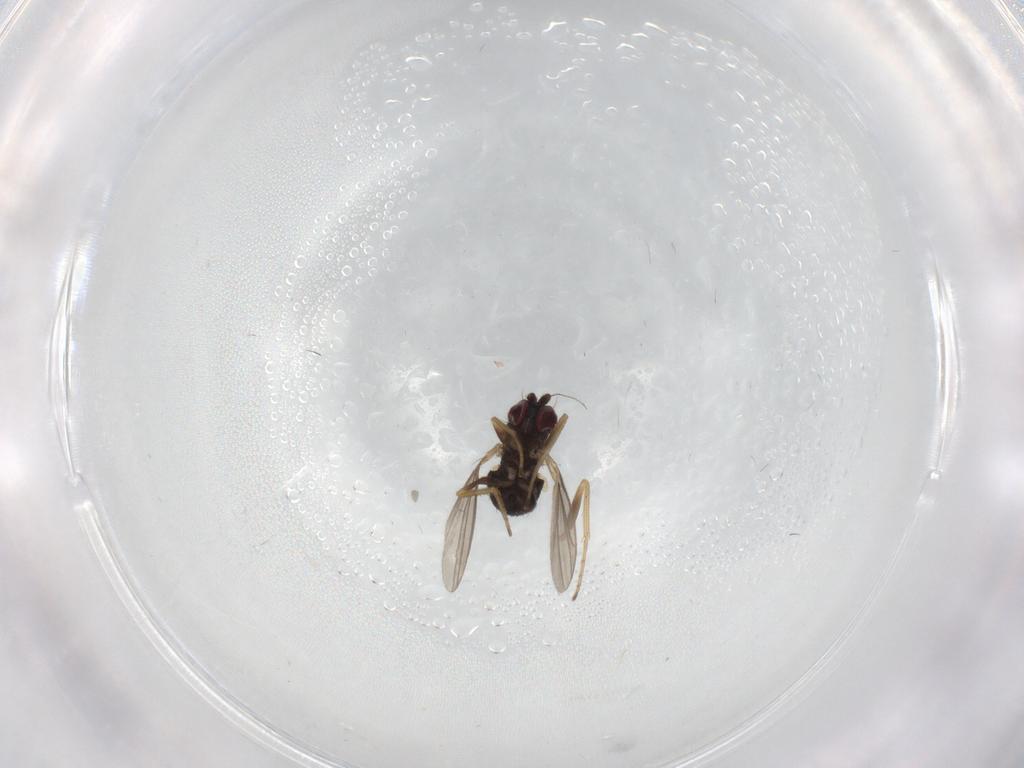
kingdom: Animalia
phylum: Arthropoda
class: Insecta
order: Diptera
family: Dolichopodidae
